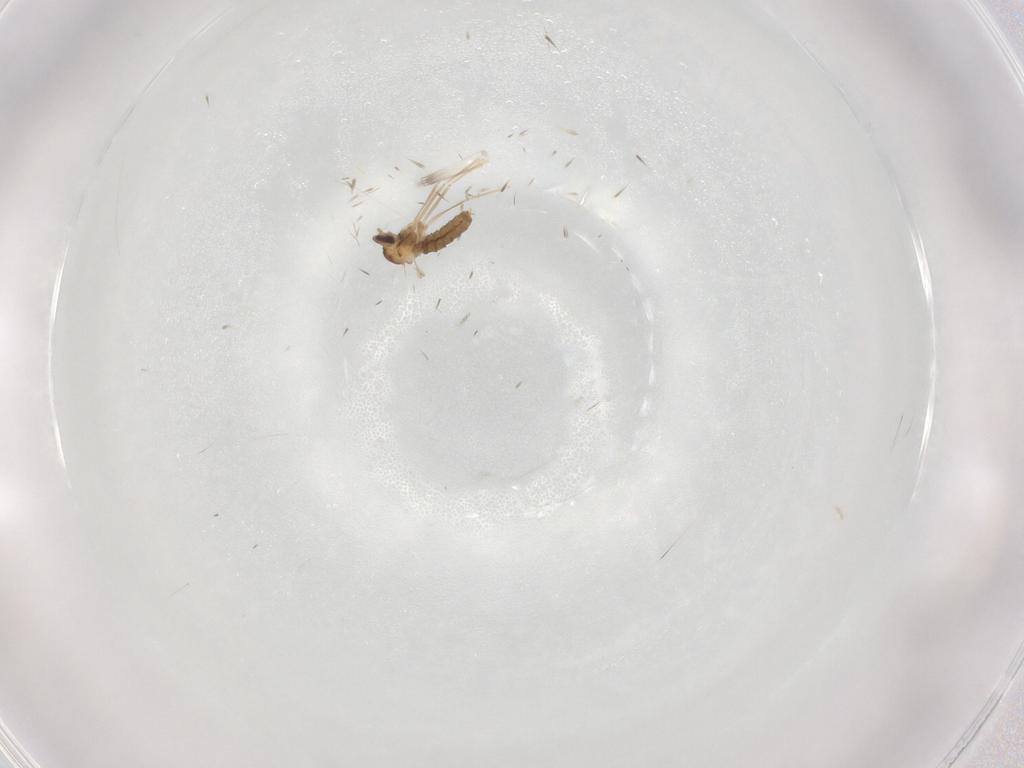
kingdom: Animalia
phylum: Arthropoda
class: Insecta
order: Diptera
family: Cecidomyiidae
